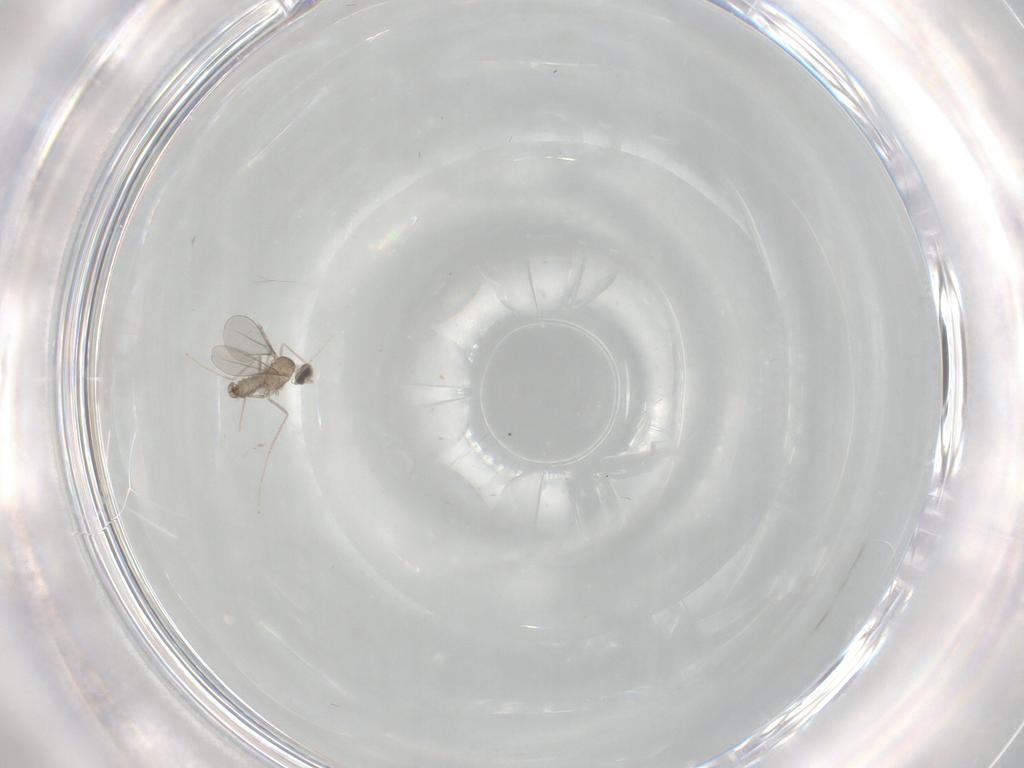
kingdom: Animalia
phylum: Arthropoda
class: Insecta
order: Diptera
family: Cecidomyiidae
